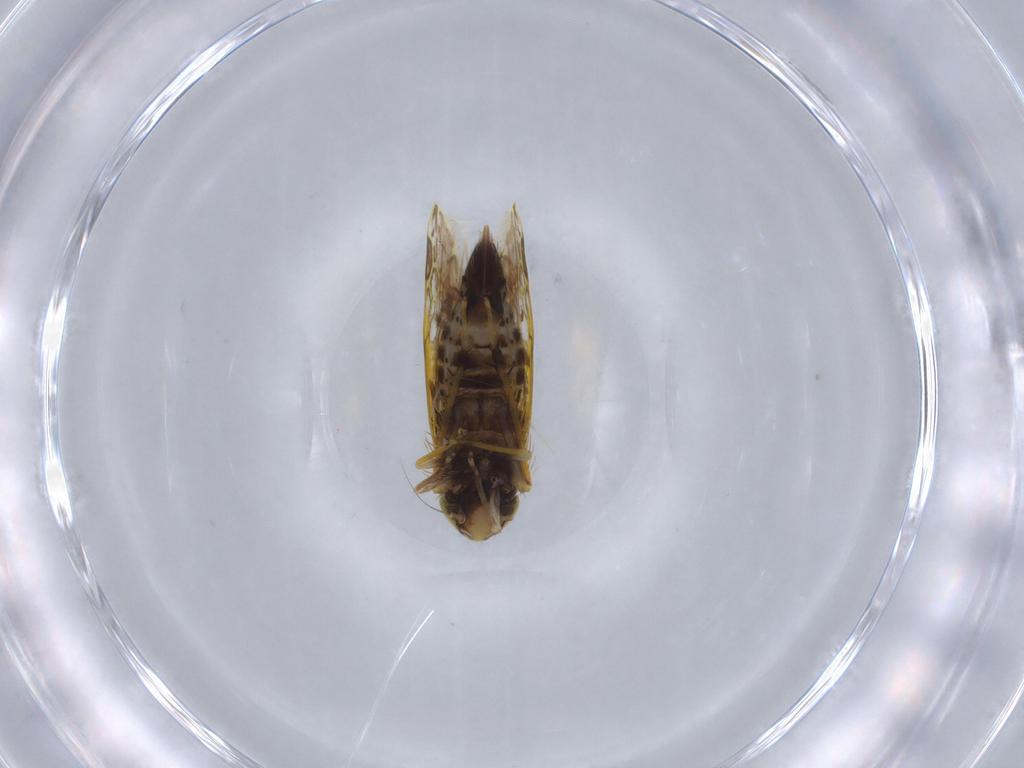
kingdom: Animalia
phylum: Arthropoda
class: Insecta
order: Hemiptera
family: Cicadellidae
